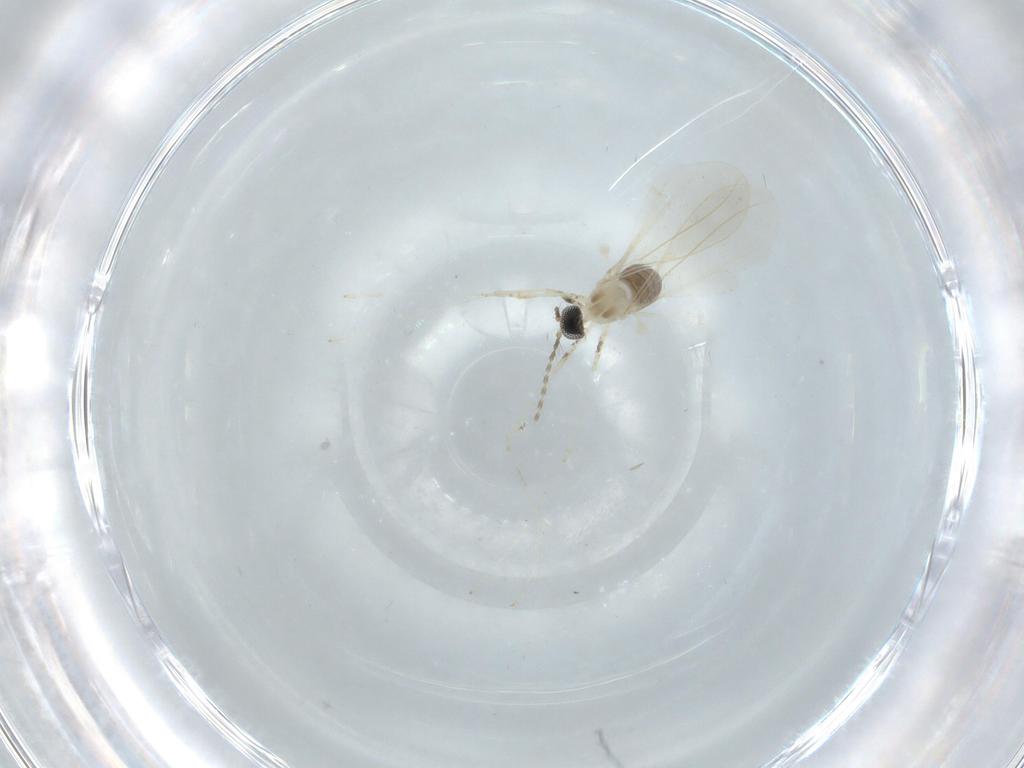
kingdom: Animalia
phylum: Arthropoda
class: Insecta
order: Diptera
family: Cecidomyiidae
